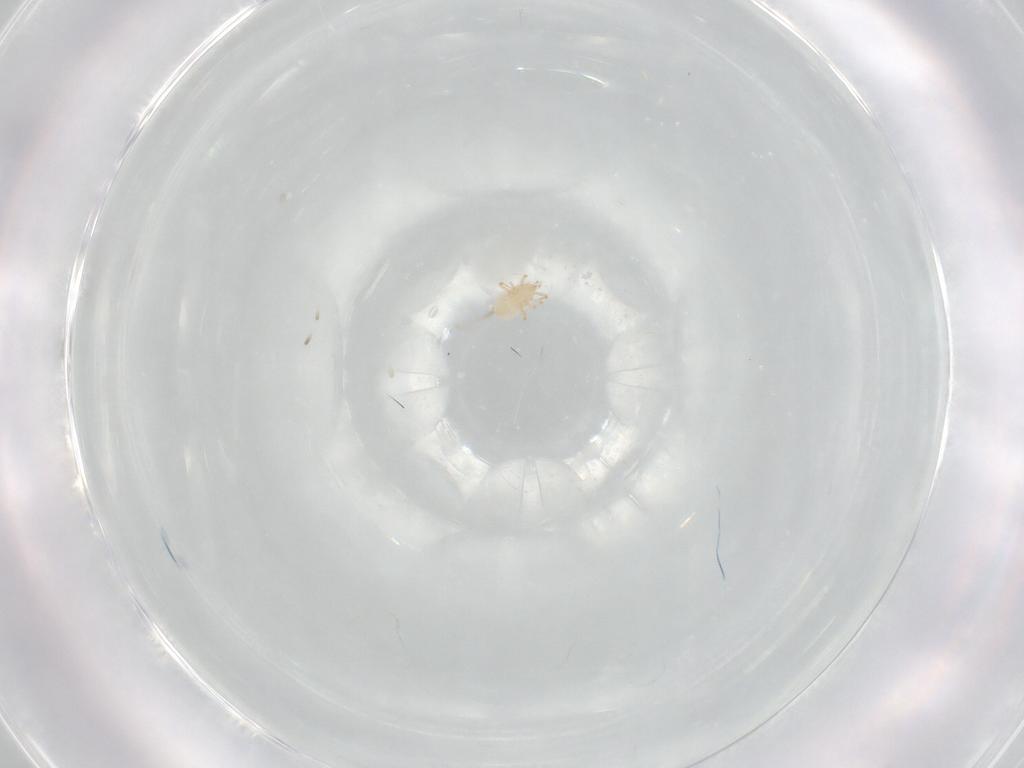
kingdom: Animalia
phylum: Arthropoda
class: Arachnida
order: Mesostigmata
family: Phytoseiidae
